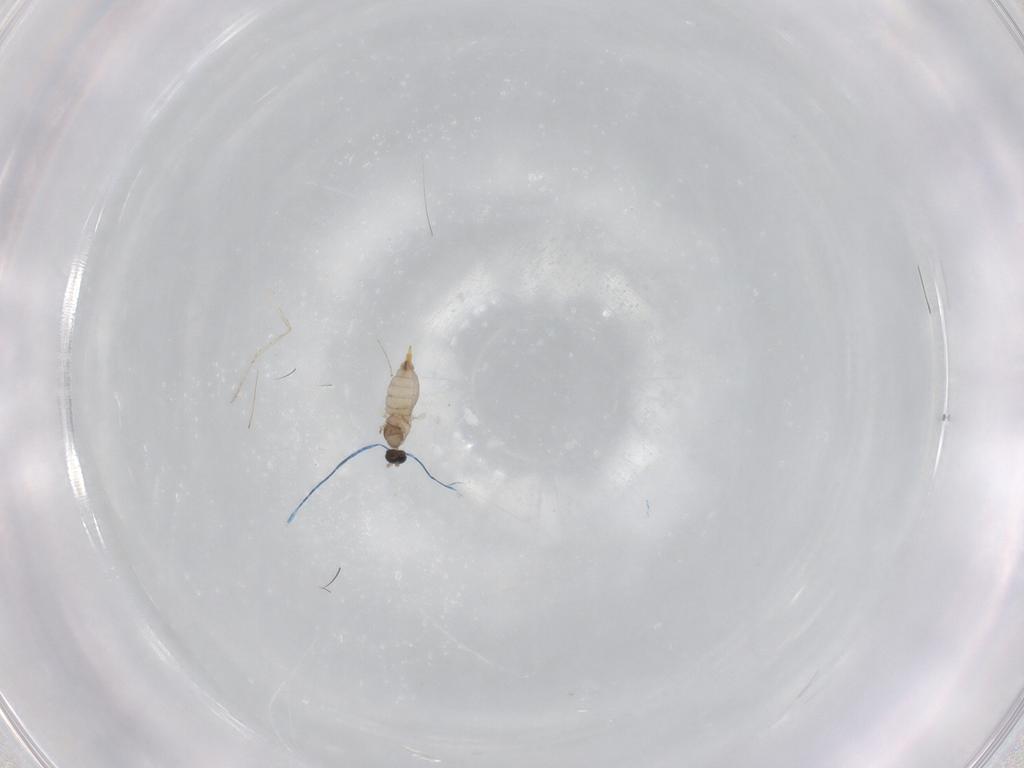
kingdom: Animalia
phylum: Arthropoda
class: Insecta
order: Diptera
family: Cecidomyiidae
